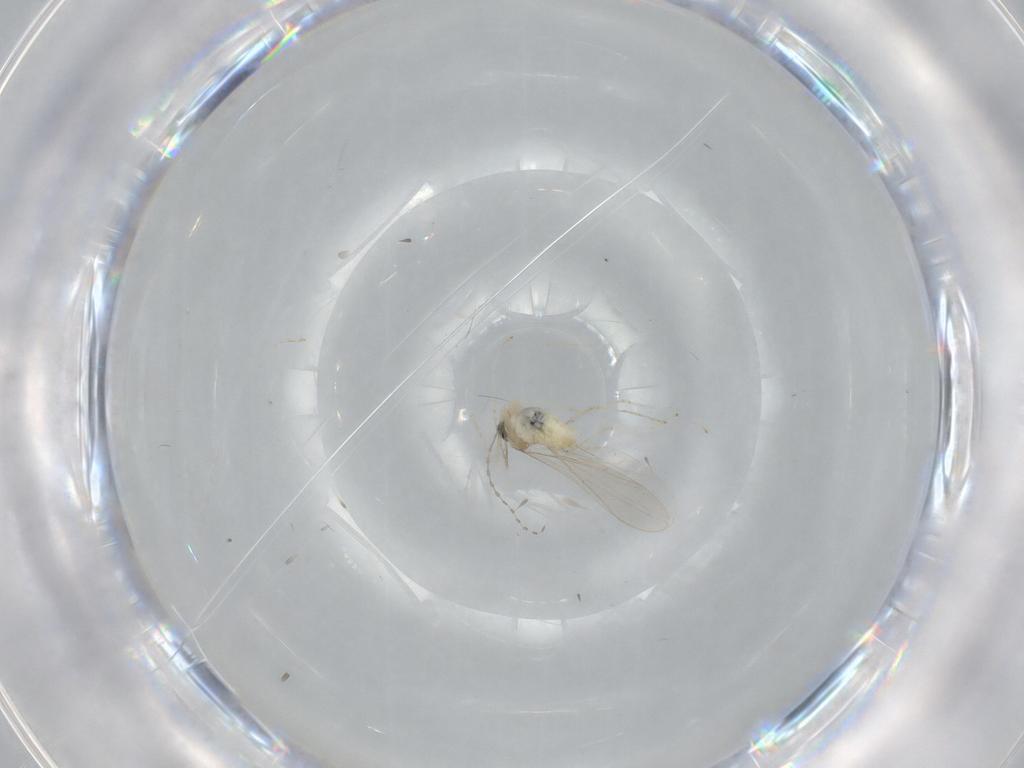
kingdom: Animalia
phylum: Arthropoda
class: Insecta
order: Diptera
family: Cecidomyiidae
